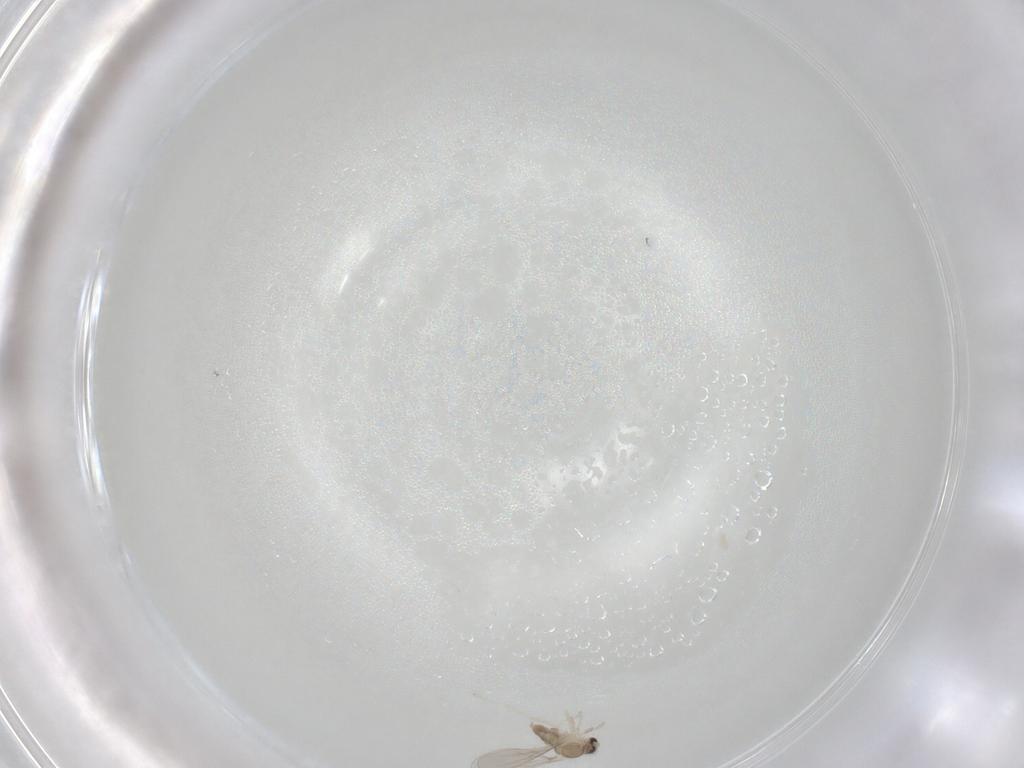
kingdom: Animalia
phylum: Arthropoda
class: Insecta
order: Diptera
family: Cecidomyiidae
